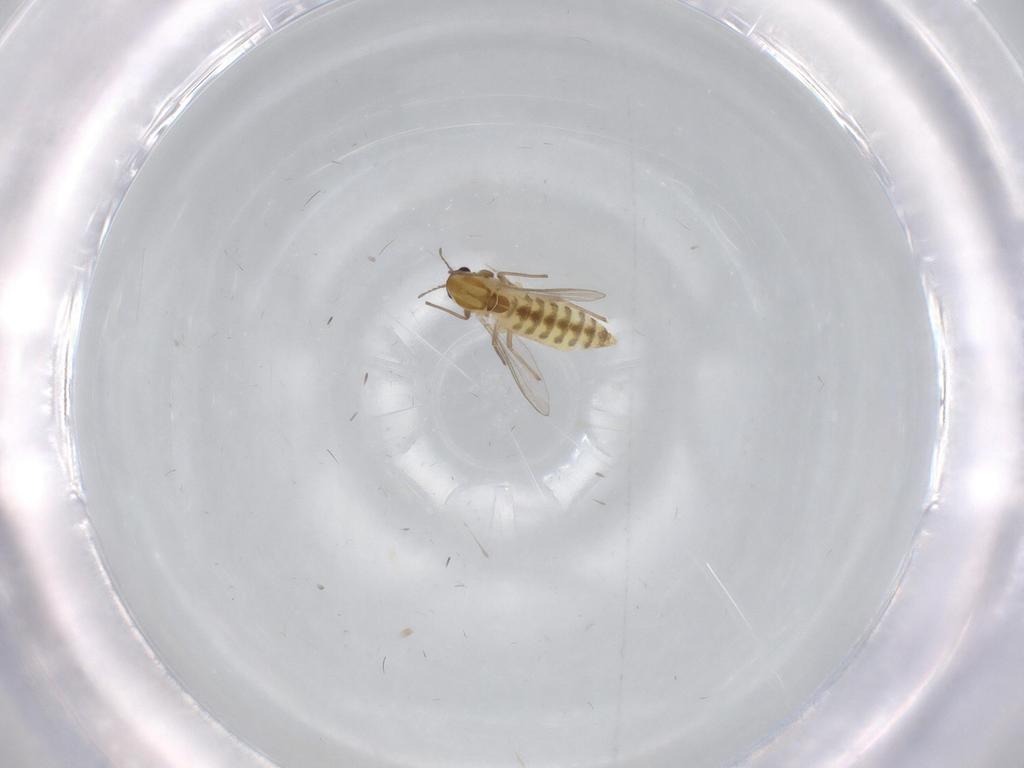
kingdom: Animalia
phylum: Arthropoda
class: Insecta
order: Diptera
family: Chironomidae
